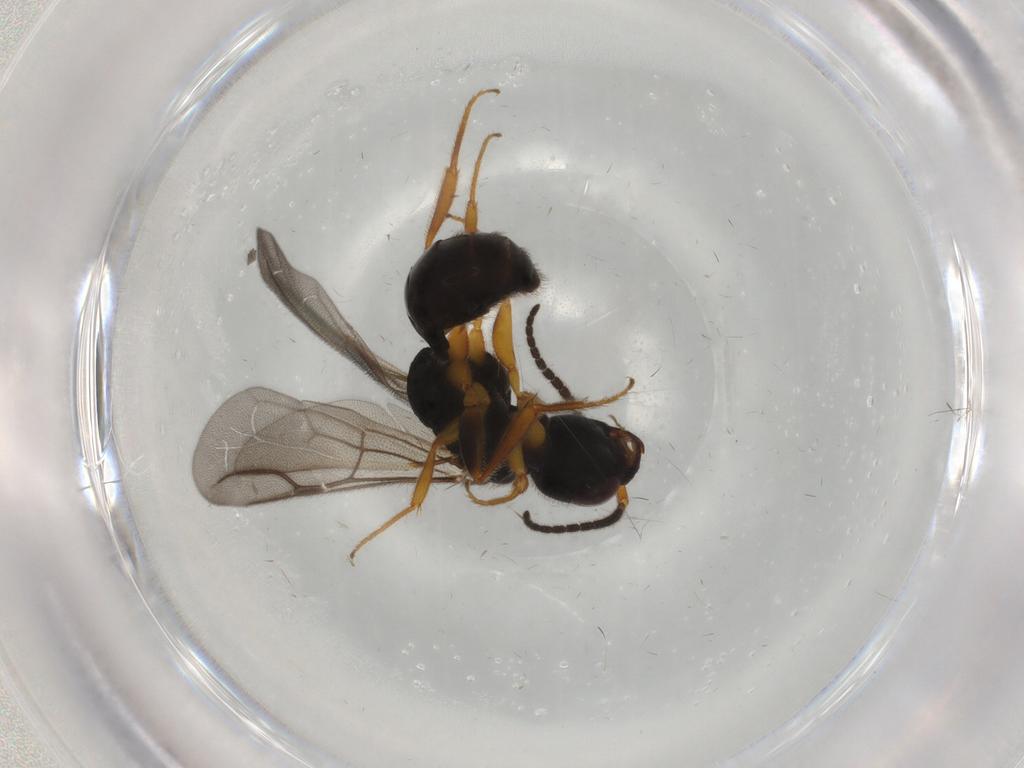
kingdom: Animalia
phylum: Arthropoda
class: Insecta
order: Hymenoptera
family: Bethylidae
